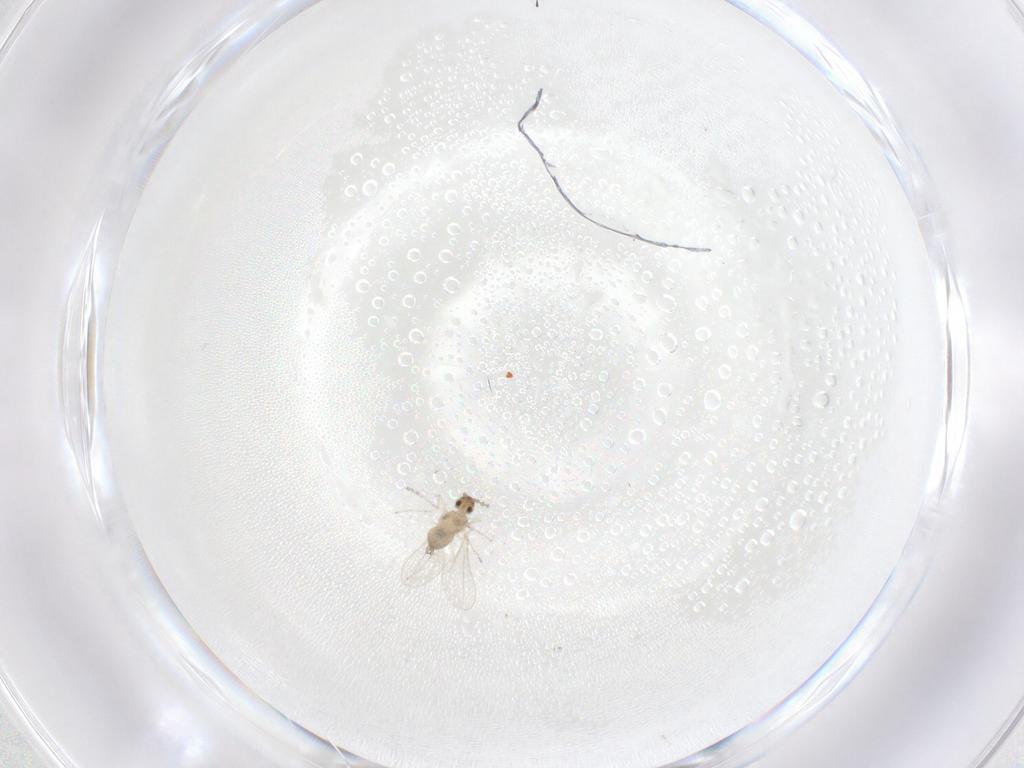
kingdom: Animalia
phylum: Arthropoda
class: Insecta
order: Diptera
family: Cecidomyiidae
